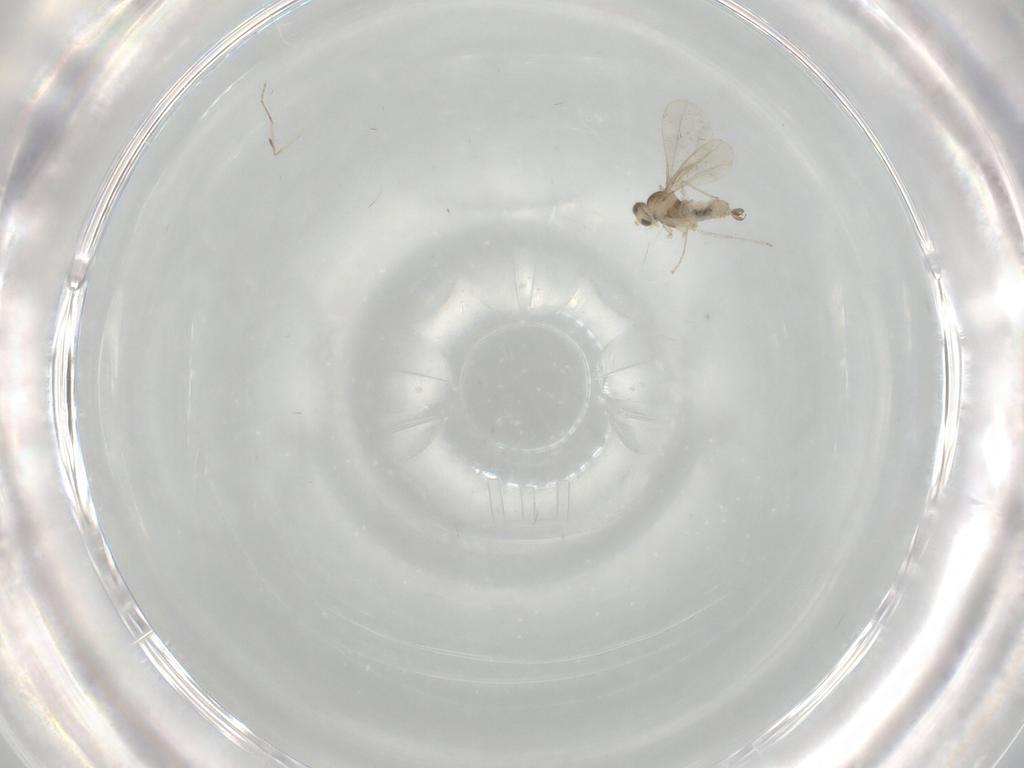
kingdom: Animalia
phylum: Arthropoda
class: Insecta
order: Diptera
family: Cecidomyiidae
